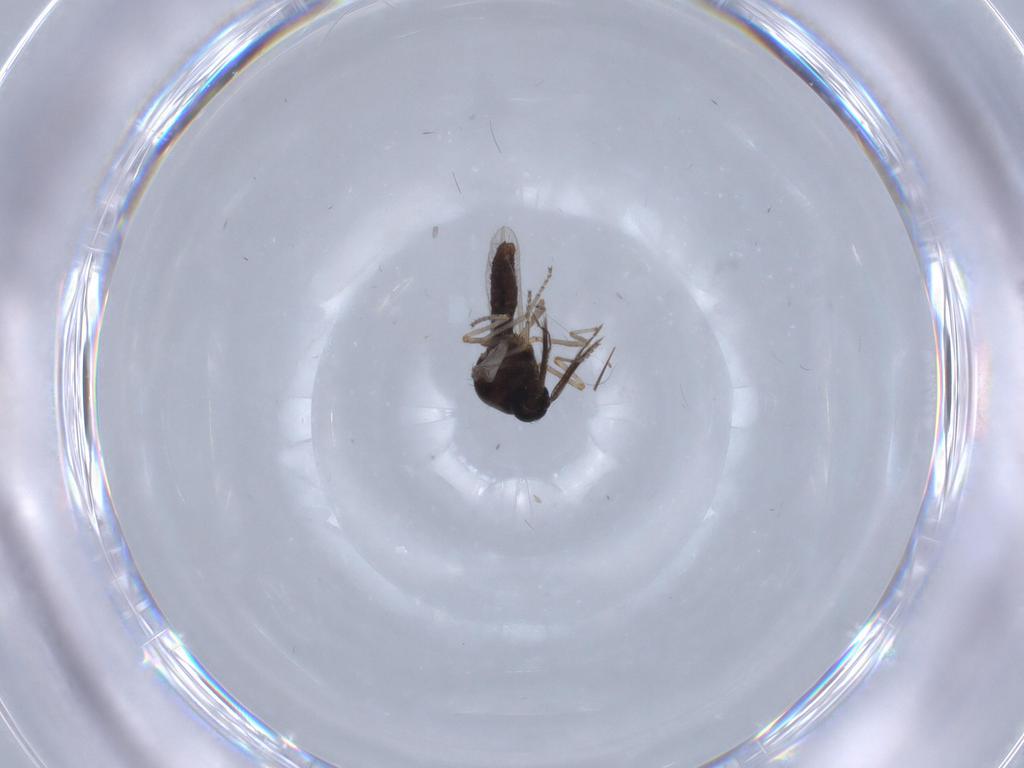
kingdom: Animalia
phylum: Arthropoda
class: Insecta
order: Diptera
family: Ceratopogonidae
